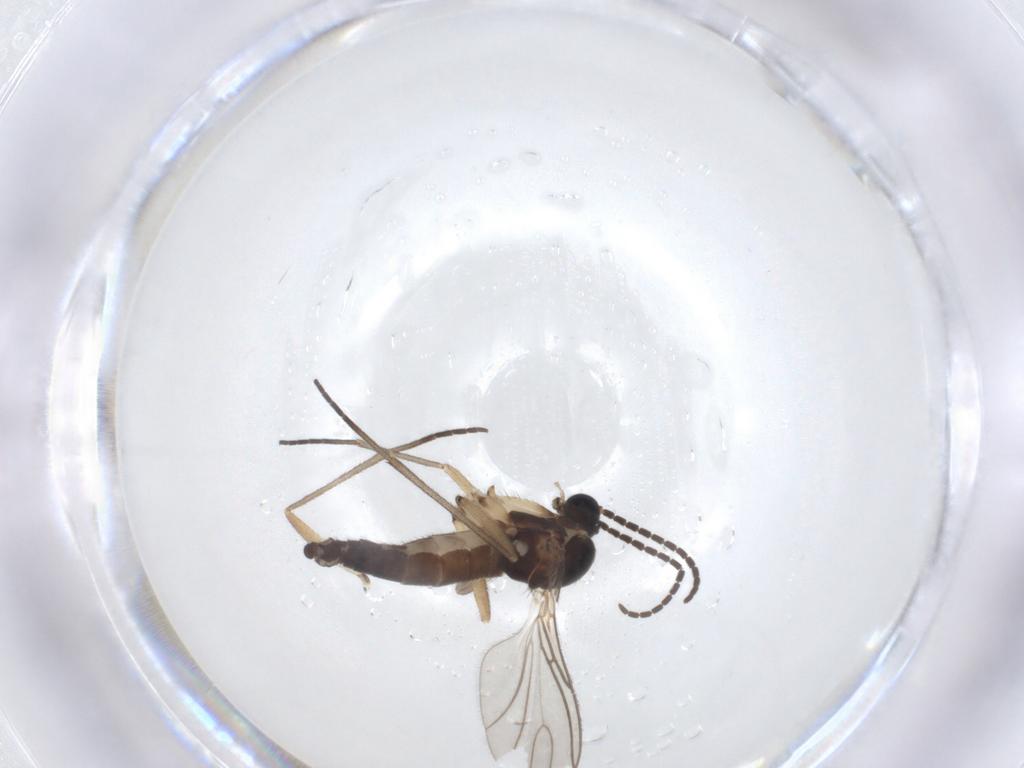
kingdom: Animalia
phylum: Arthropoda
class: Insecta
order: Diptera
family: Sciaridae
